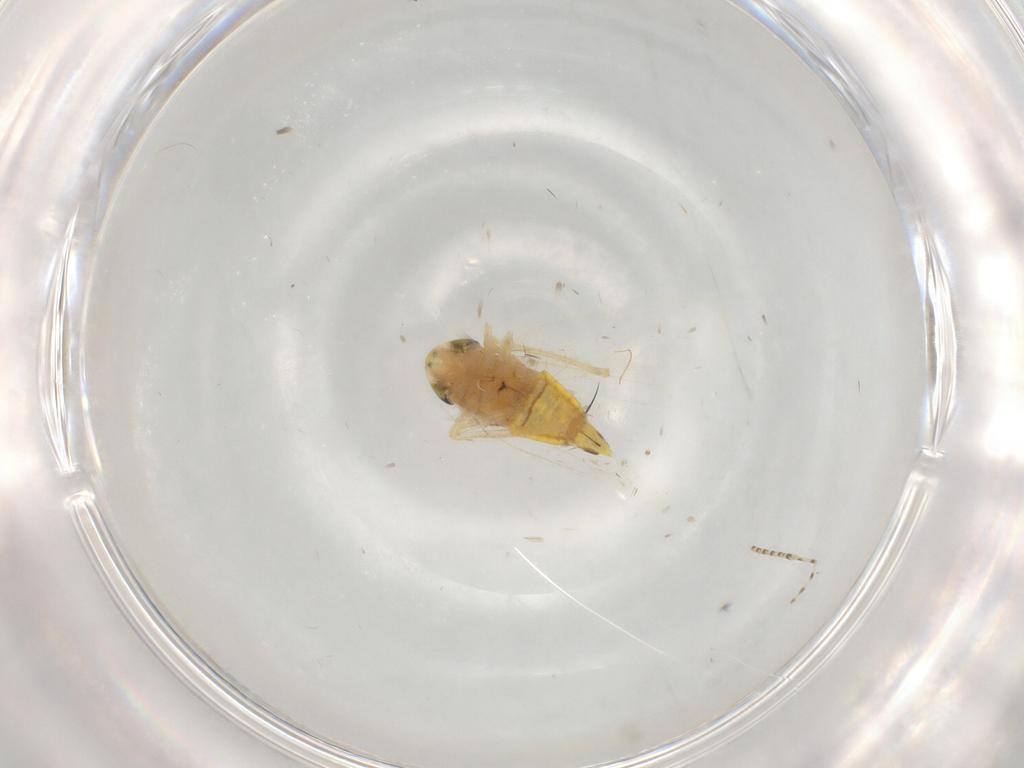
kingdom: Animalia
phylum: Arthropoda
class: Insecta
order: Hemiptera
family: Cicadellidae
